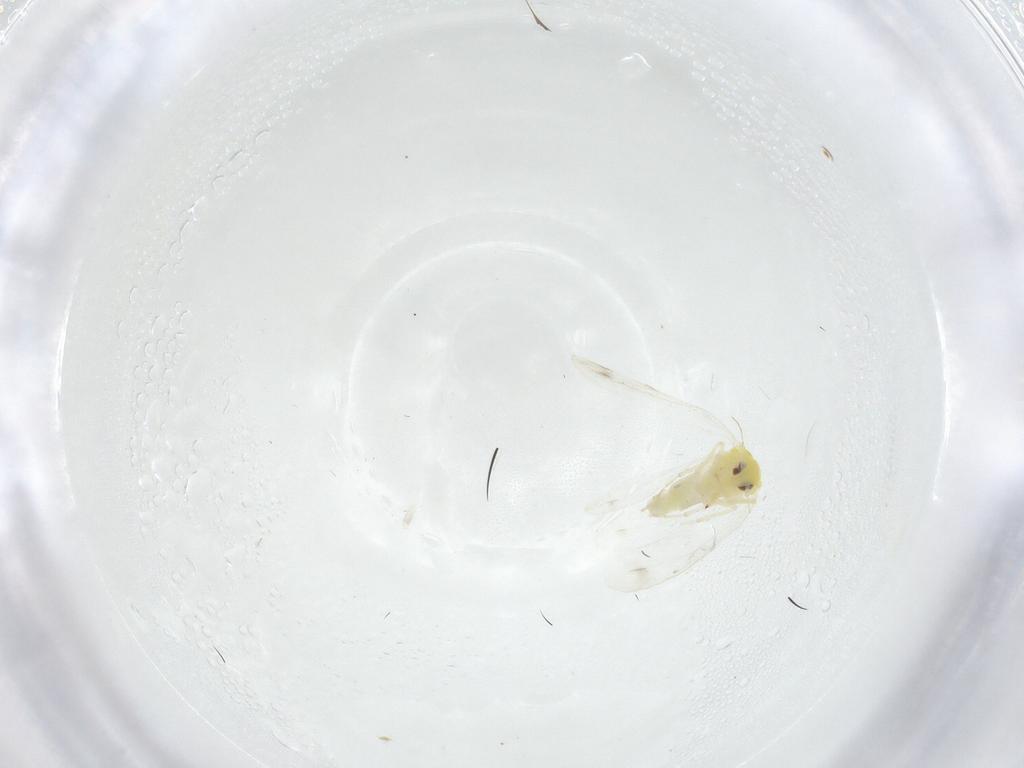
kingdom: Animalia
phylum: Arthropoda
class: Insecta
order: Hemiptera
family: Aleyrodidae
